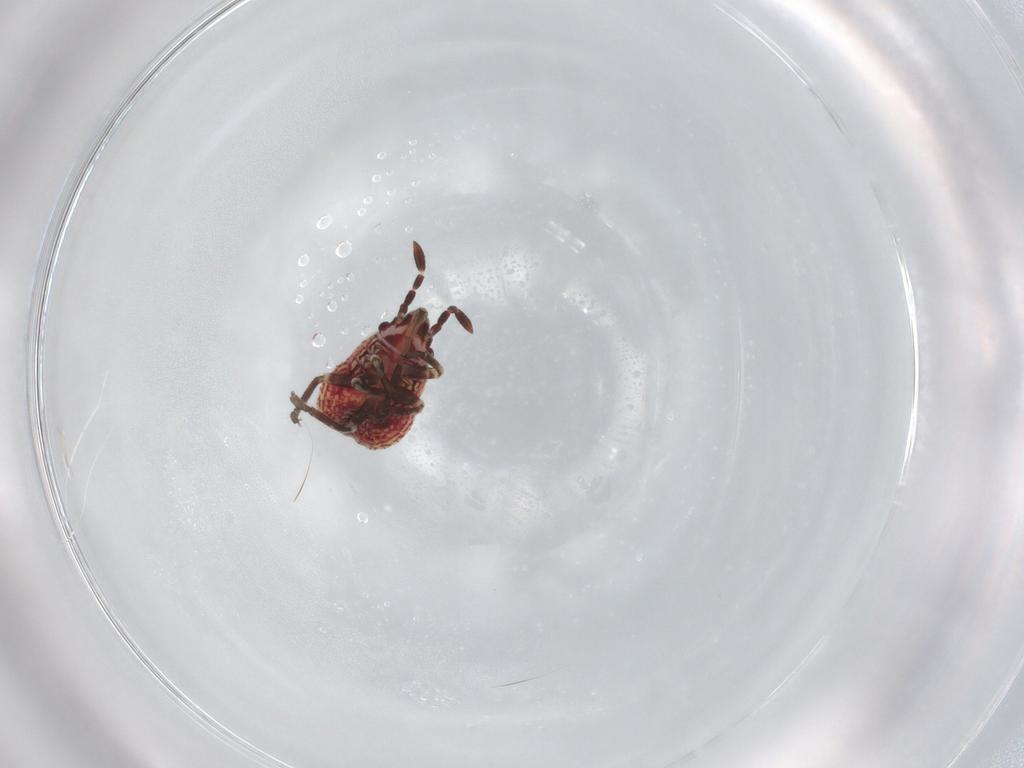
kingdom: Animalia
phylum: Arthropoda
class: Insecta
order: Hemiptera
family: Lygaeidae
